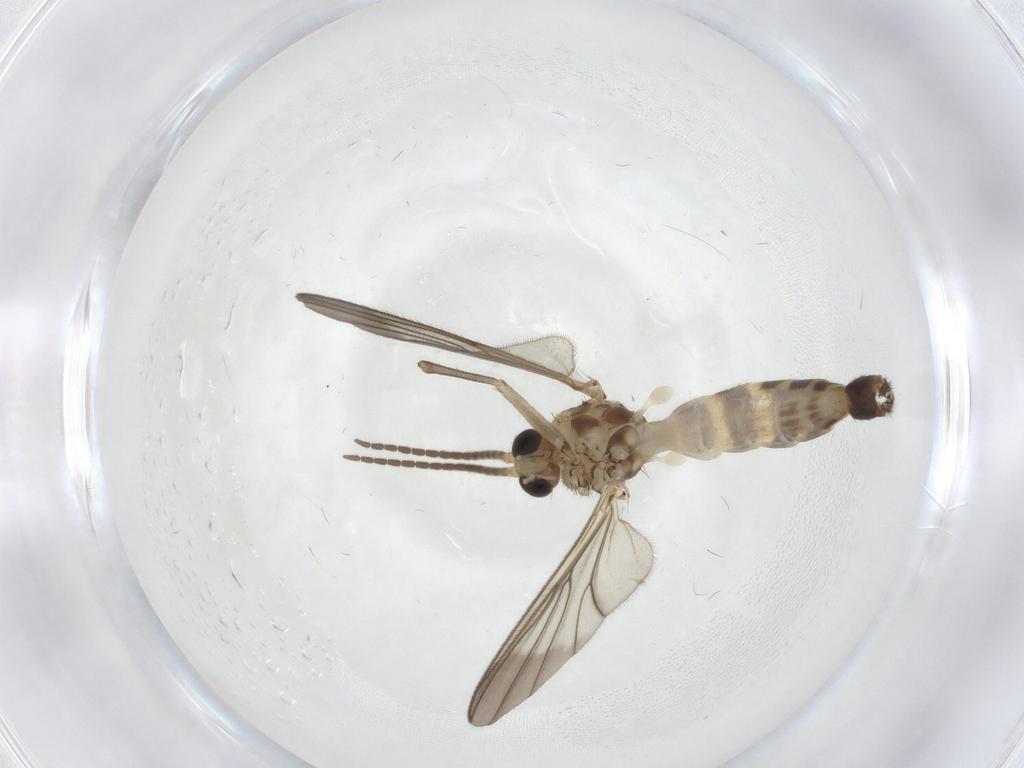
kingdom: Animalia
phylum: Arthropoda
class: Insecta
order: Diptera
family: Mycetophilidae
